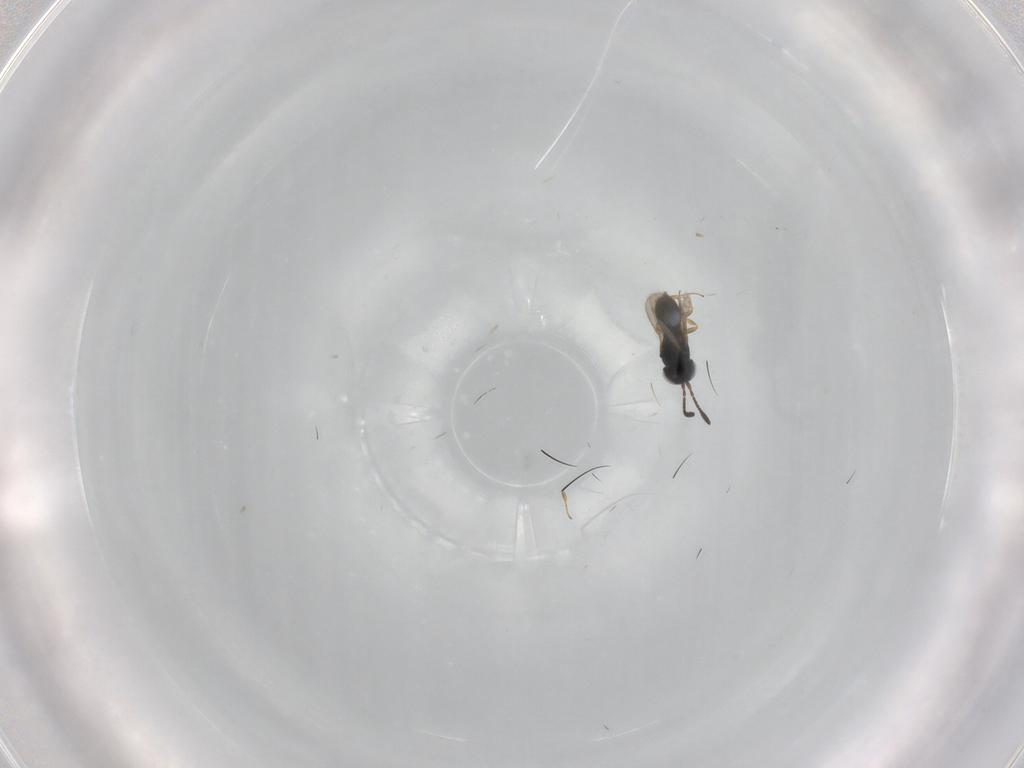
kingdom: Animalia
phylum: Arthropoda
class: Insecta
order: Hymenoptera
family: Scelionidae
